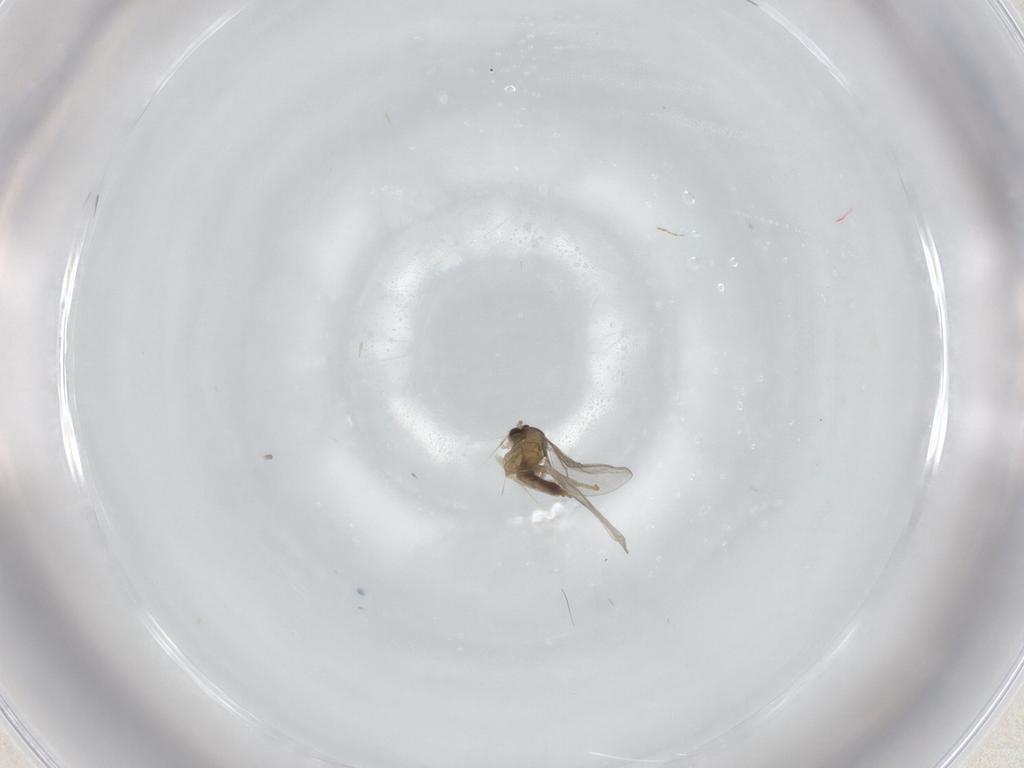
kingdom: Animalia
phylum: Arthropoda
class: Insecta
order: Diptera
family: Cecidomyiidae
